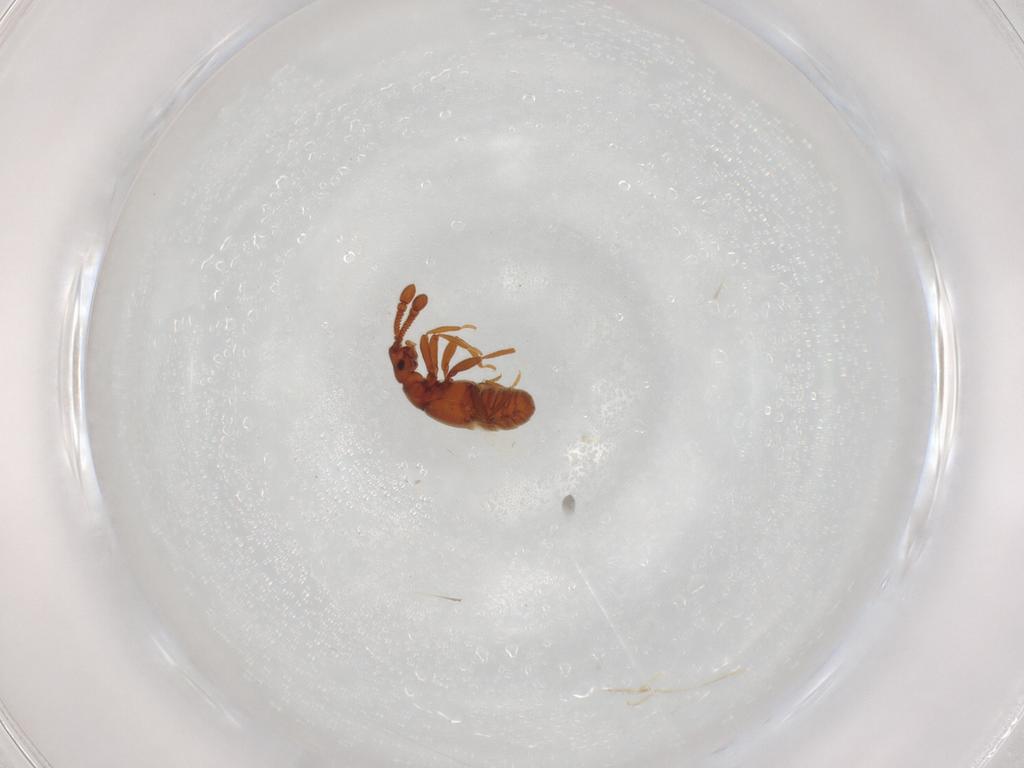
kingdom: Animalia
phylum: Arthropoda
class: Insecta
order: Coleoptera
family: Staphylinidae
